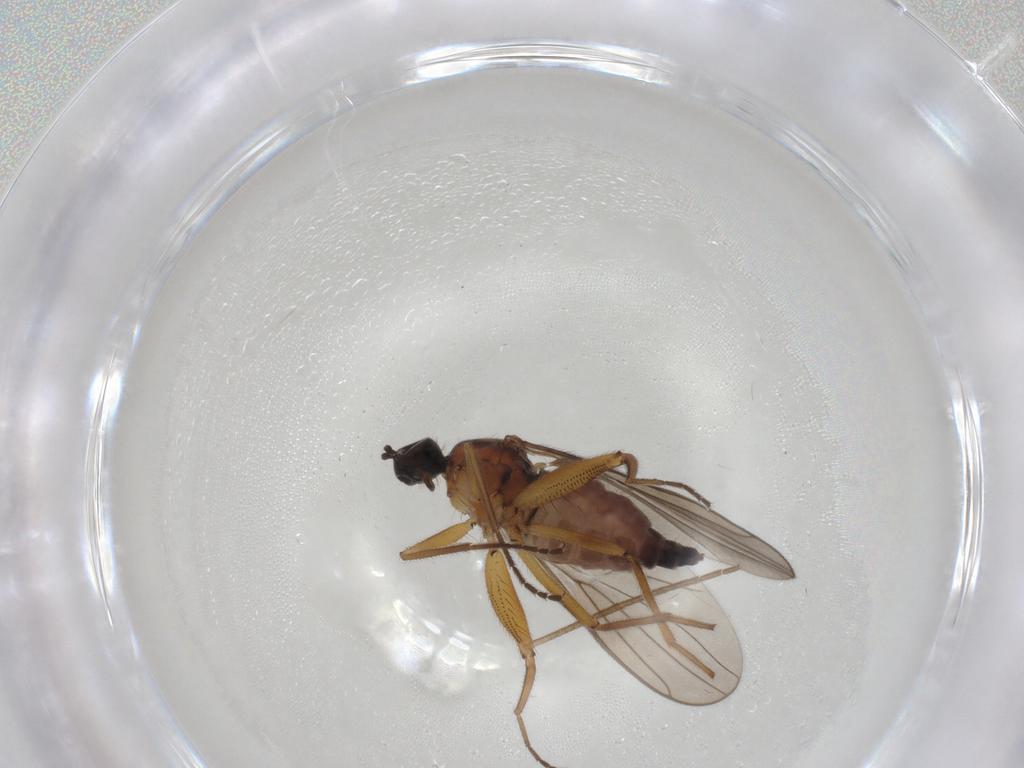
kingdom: Animalia
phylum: Arthropoda
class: Insecta
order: Diptera
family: Hybotidae
